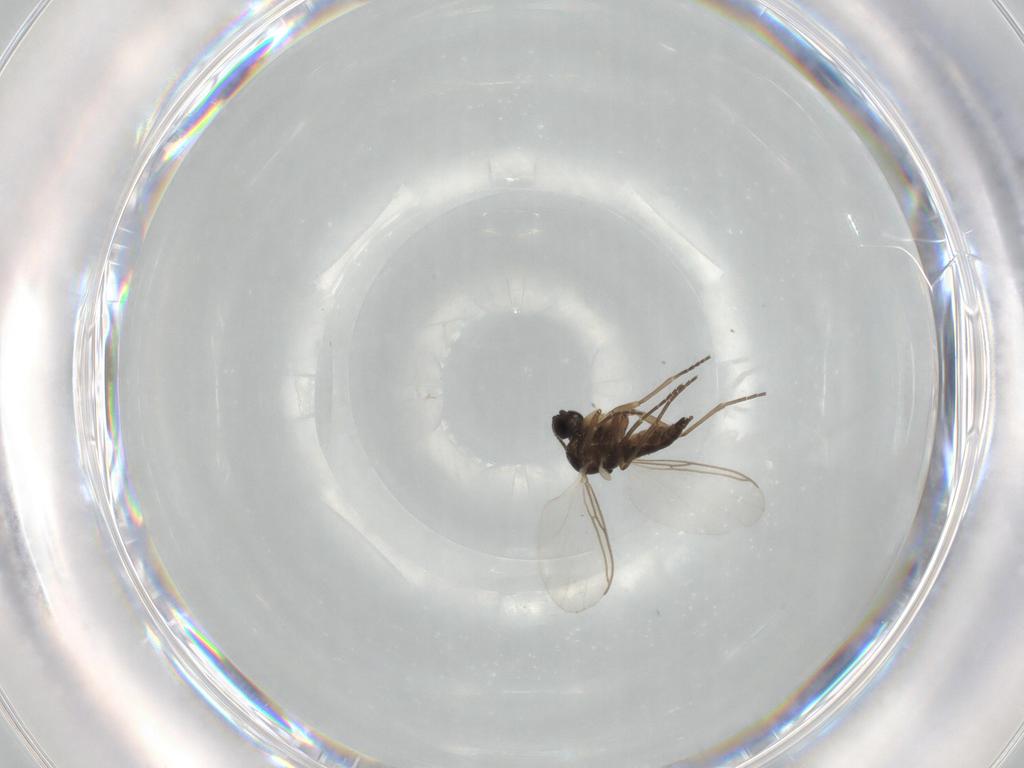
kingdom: Animalia
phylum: Arthropoda
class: Insecta
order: Diptera
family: Sciaridae
